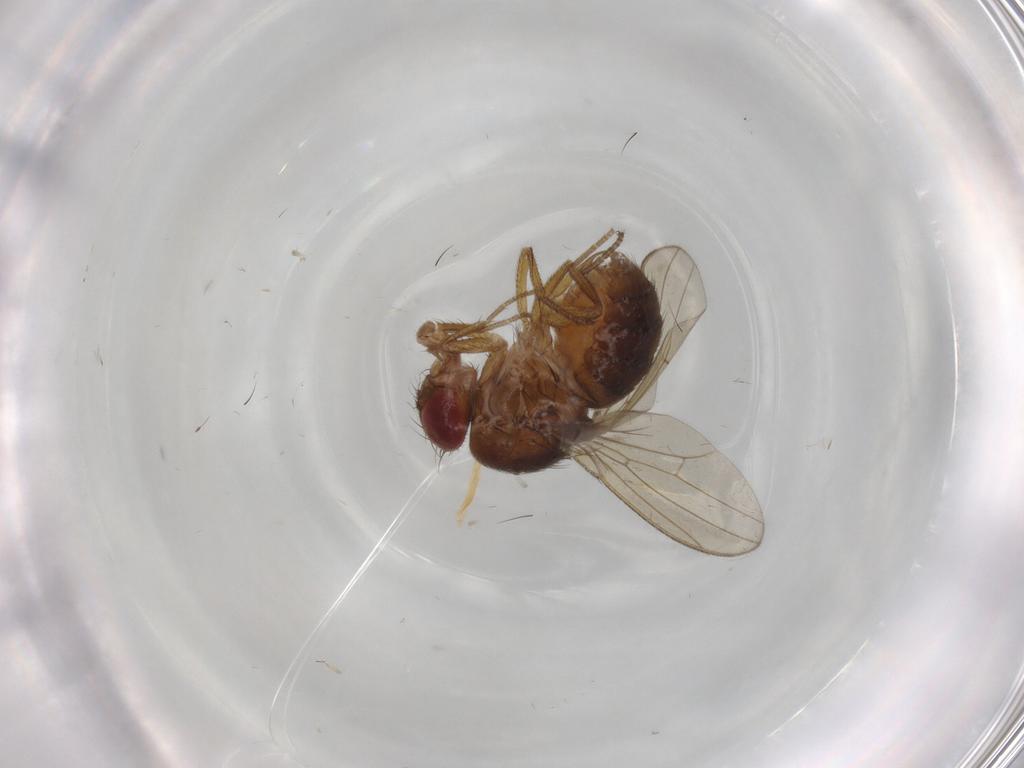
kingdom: Animalia
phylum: Arthropoda
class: Insecta
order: Diptera
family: Drosophilidae
